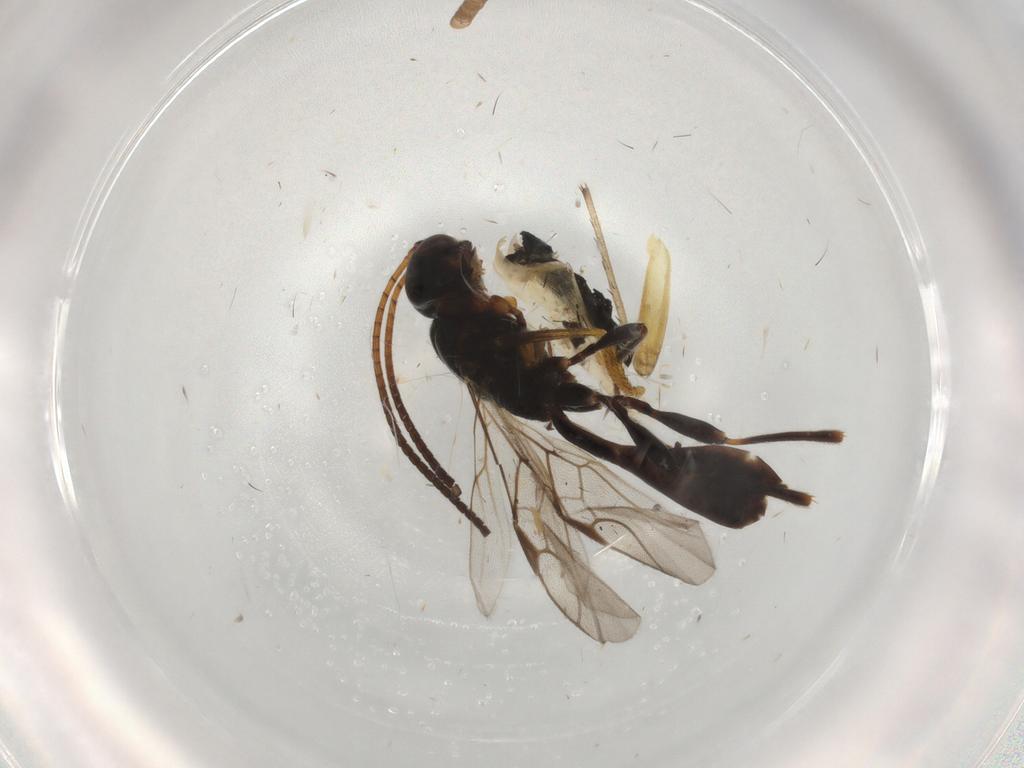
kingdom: Animalia
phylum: Arthropoda
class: Insecta
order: Hymenoptera
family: Braconidae
